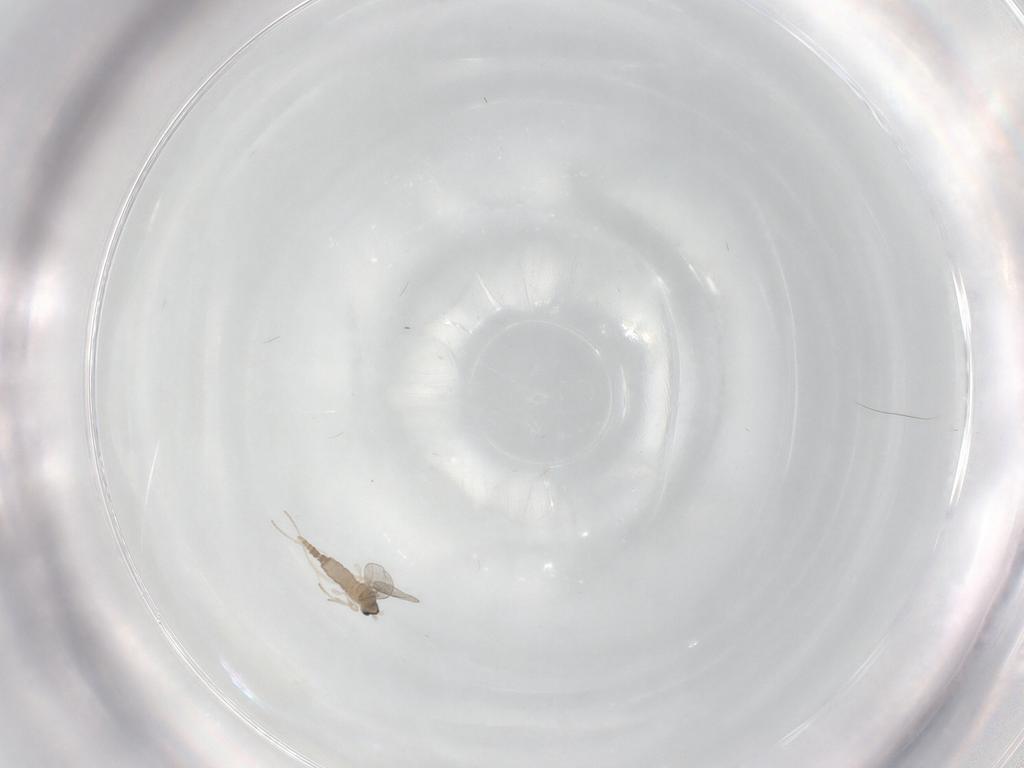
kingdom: Animalia
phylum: Arthropoda
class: Insecta
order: Diptera
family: Cecidomyiidae
